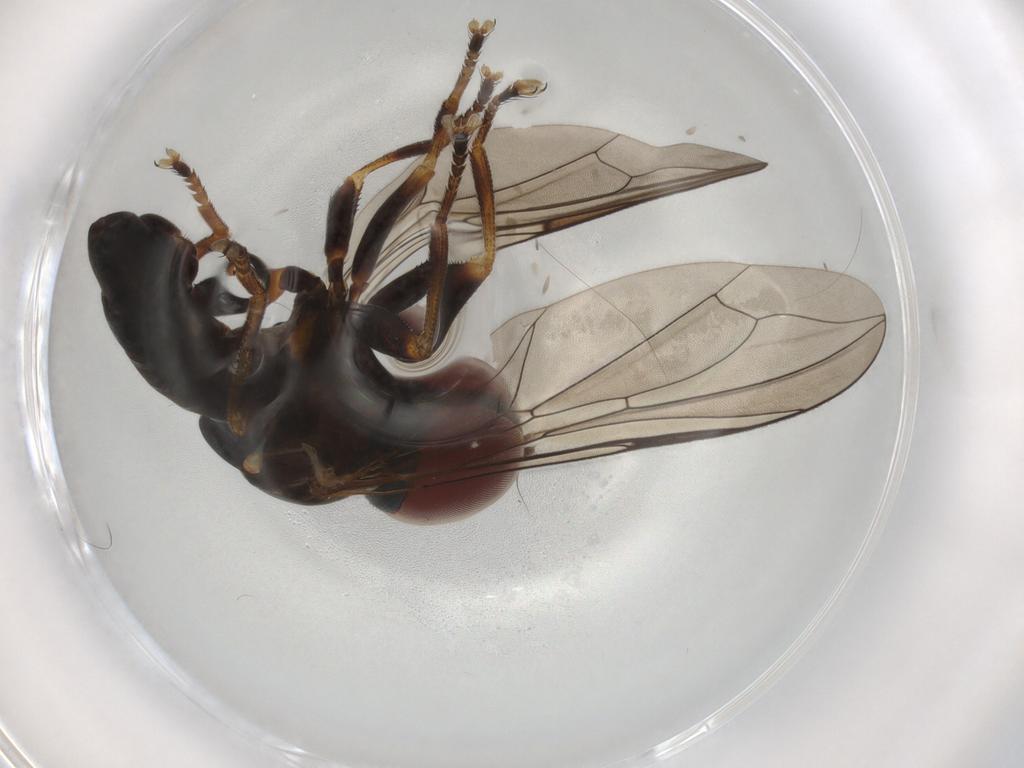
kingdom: Animalia
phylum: Arthropoda
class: Insecta
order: Diptera
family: Pipunculidae
